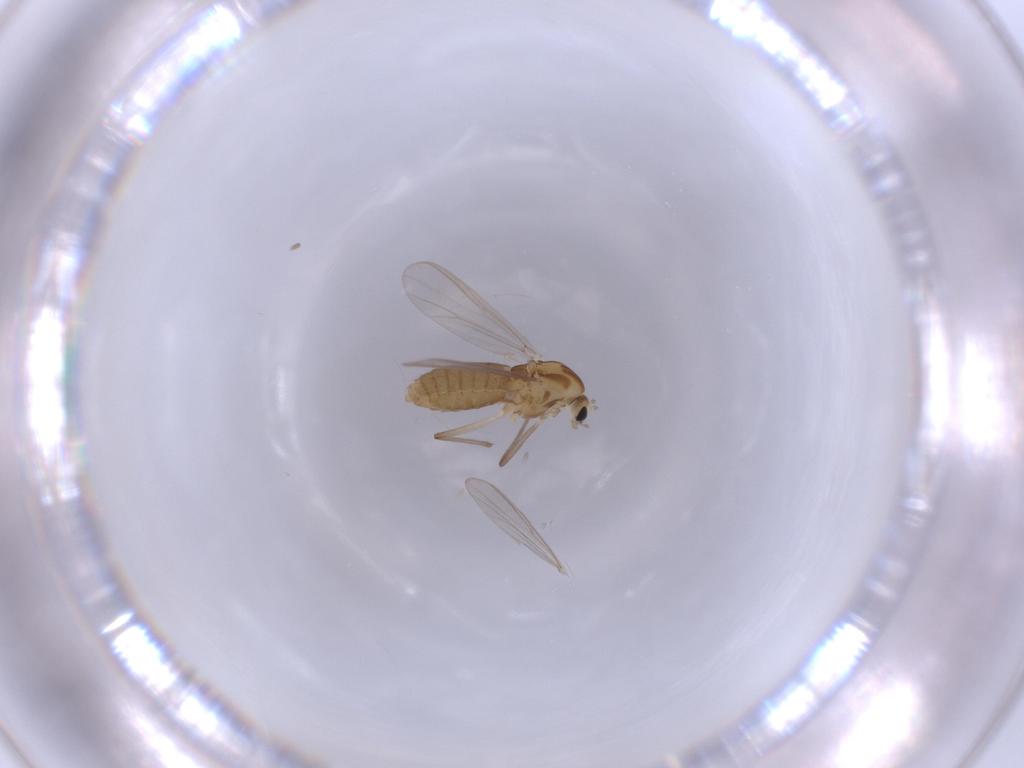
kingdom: Animalia
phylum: Arthropoda
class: Insecta
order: Diptera
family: Chironomidae
